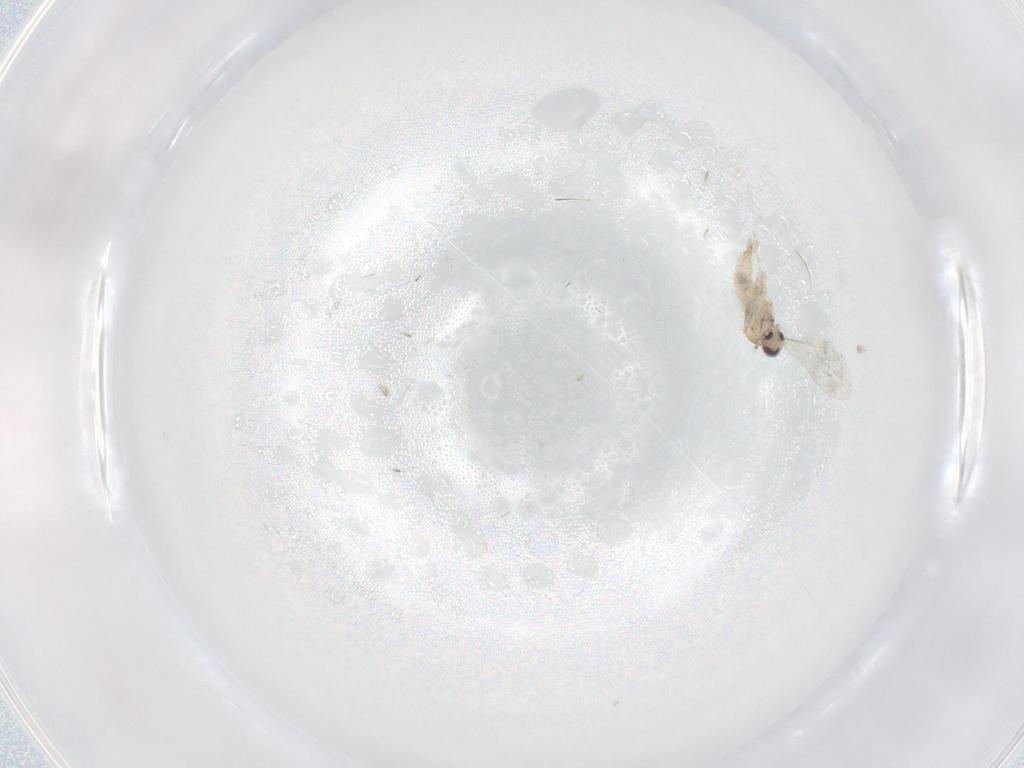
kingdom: Animalia
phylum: Arthropoda
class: Insecta
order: Diptera
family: Cecidomyiidae
